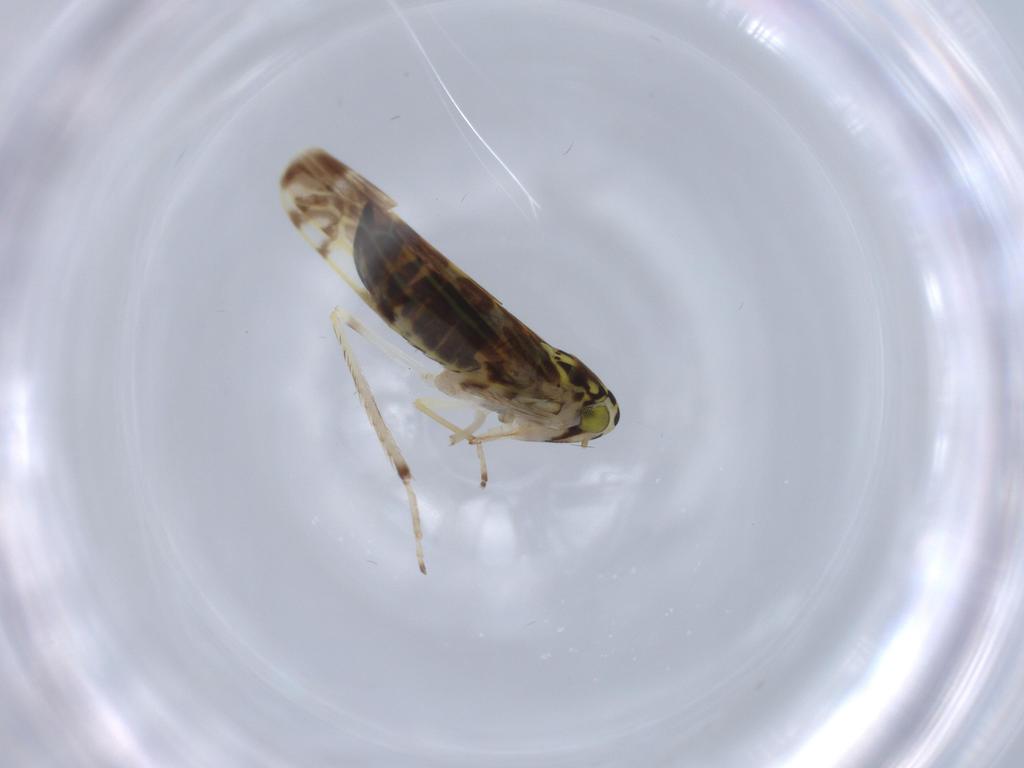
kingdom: Animalia
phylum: Arthropoda
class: Insecta
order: Hemiptera
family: Cicadellidae
